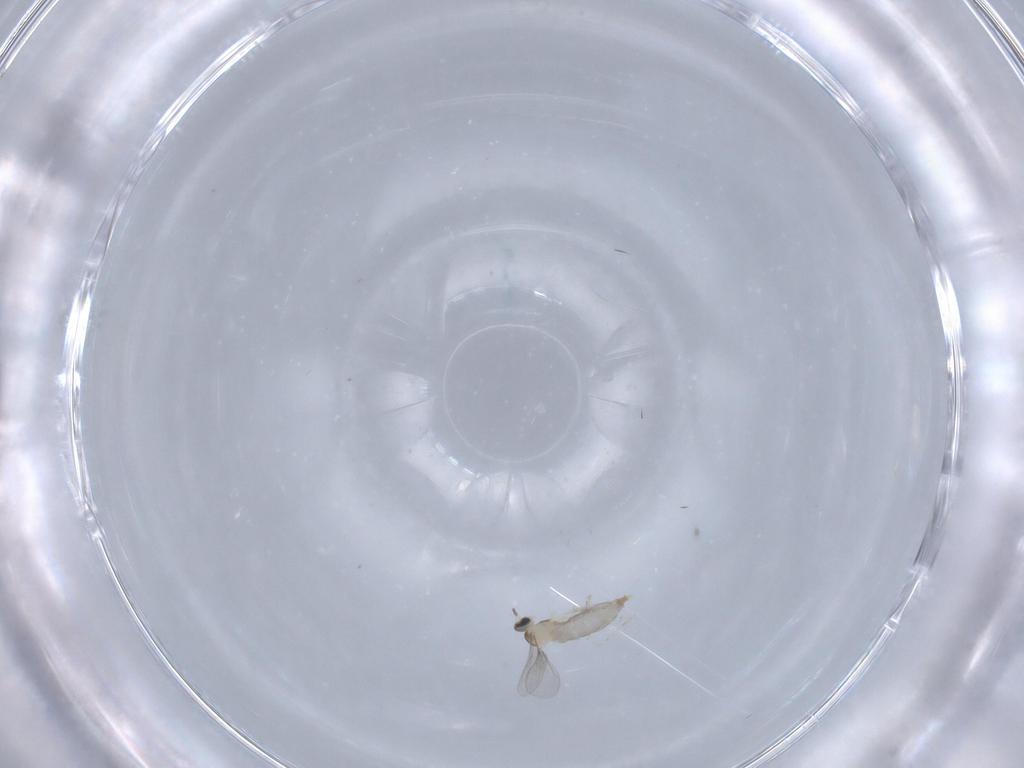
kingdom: Animalia
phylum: Arthropoda
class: Insecta
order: Diptera
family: Cecidomyiidae
